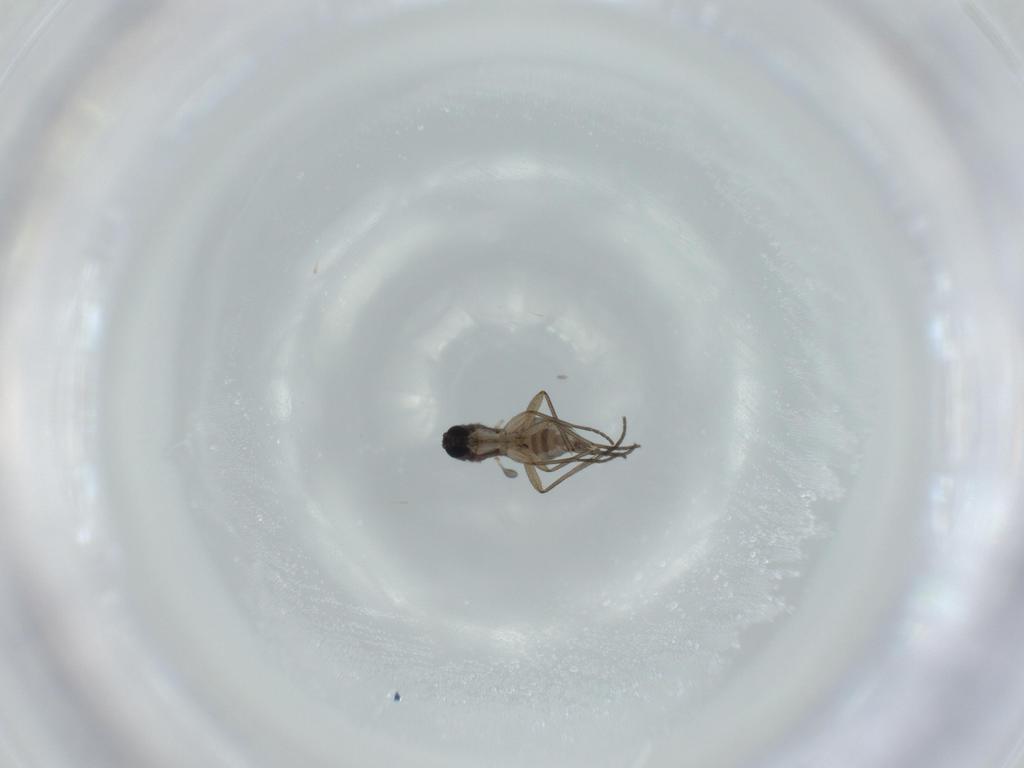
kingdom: Animalia
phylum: Arthropoda
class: Insecta
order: Diptera
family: Sciaridae
